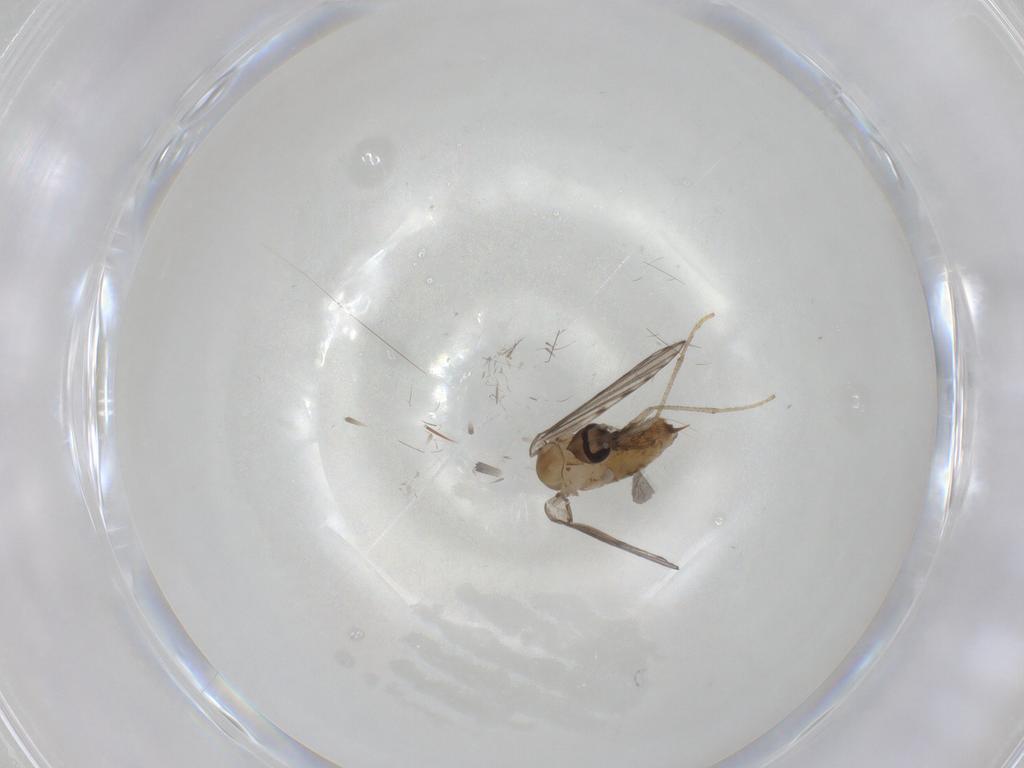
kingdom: Animalia
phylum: Arthropoda
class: Insecta
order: Diptera
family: Psychodidae
